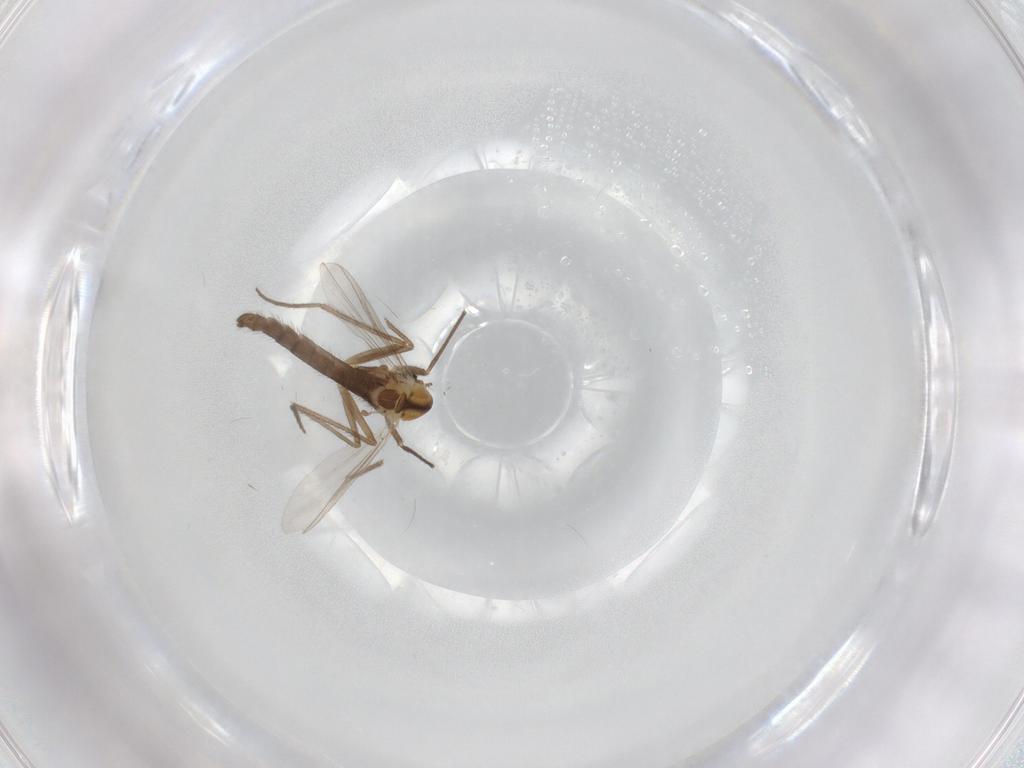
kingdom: Animalia
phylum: Arthropoda
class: Insecta
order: Diptera
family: Chironomidae
